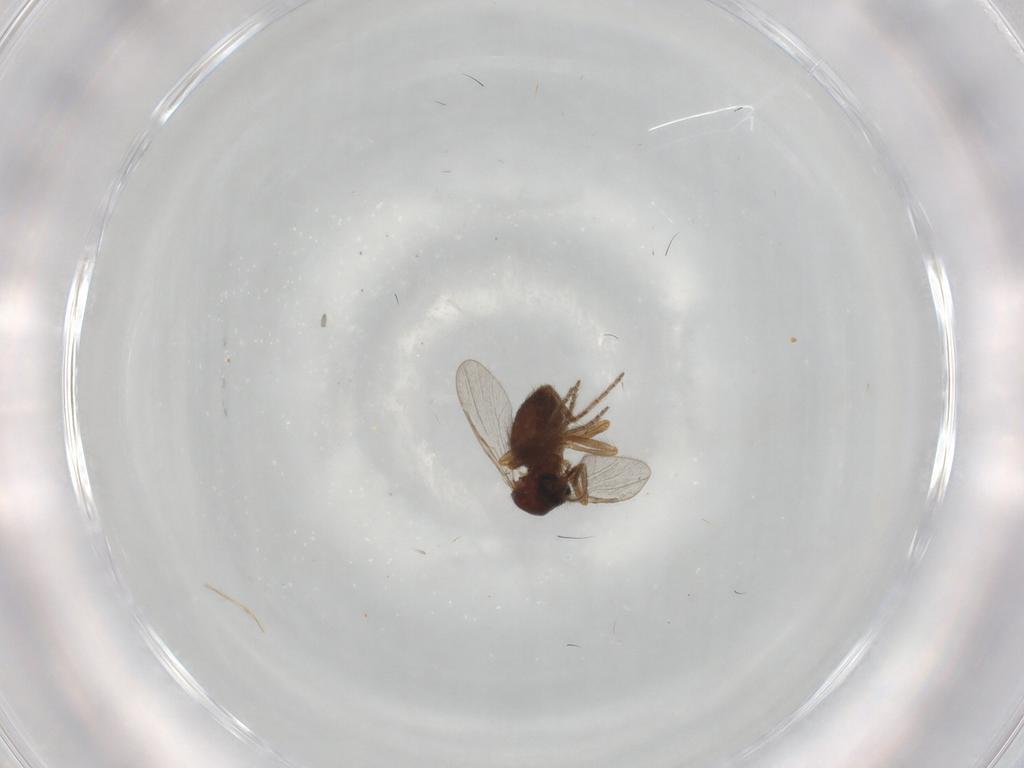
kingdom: Animalia
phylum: Arthropoda
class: Insecta
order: Diptera
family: Ceratopogonidae
